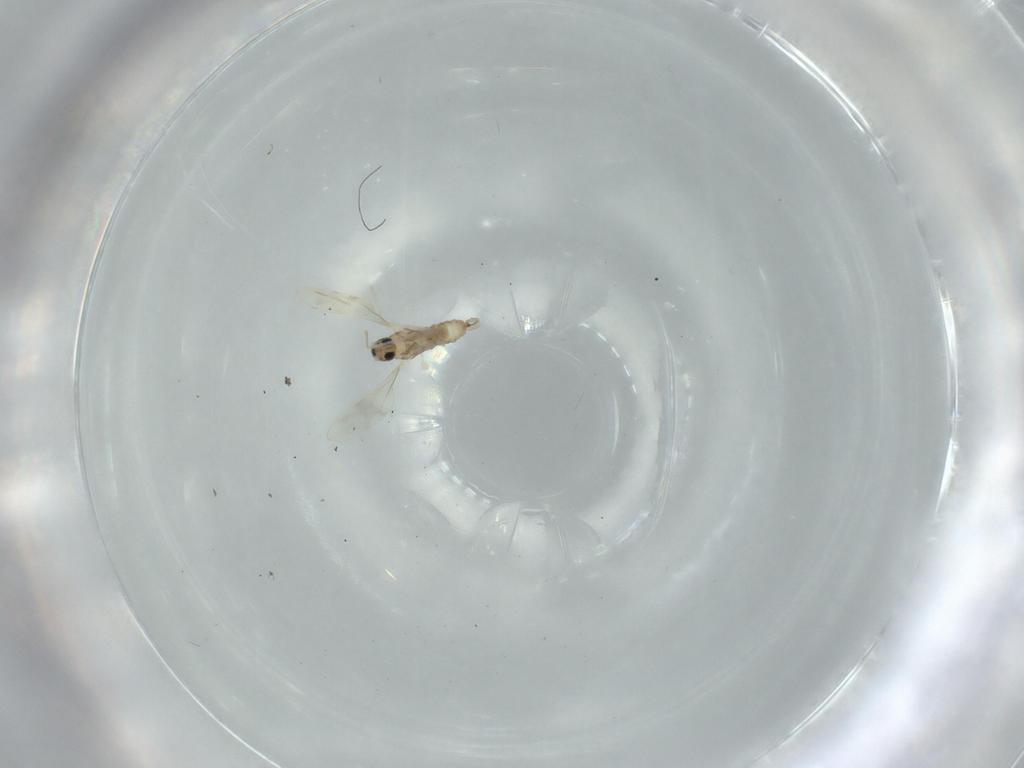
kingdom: Animalia
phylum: Arthropoda
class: Insecta
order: Diptera
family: Cecidomyiidae
